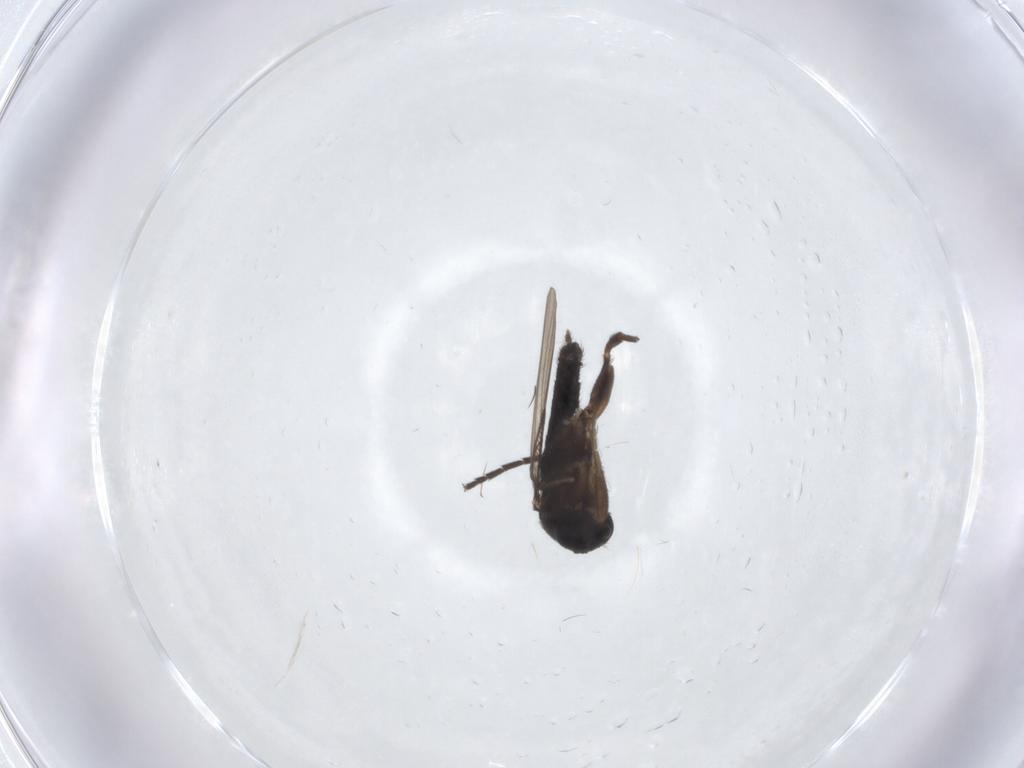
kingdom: Animalia
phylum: Arthropoda
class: Insecta
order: Diptera
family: Phoridae
